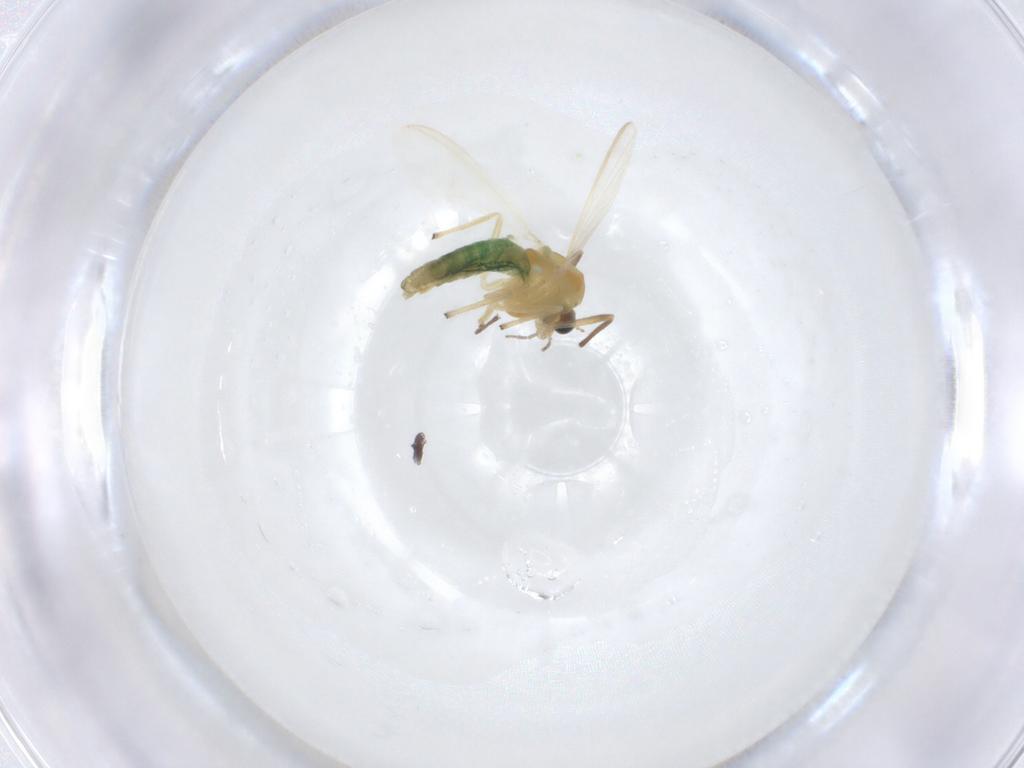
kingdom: Animalia
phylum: Arthropoda
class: Insecta
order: Diptera
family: Chironomidae
